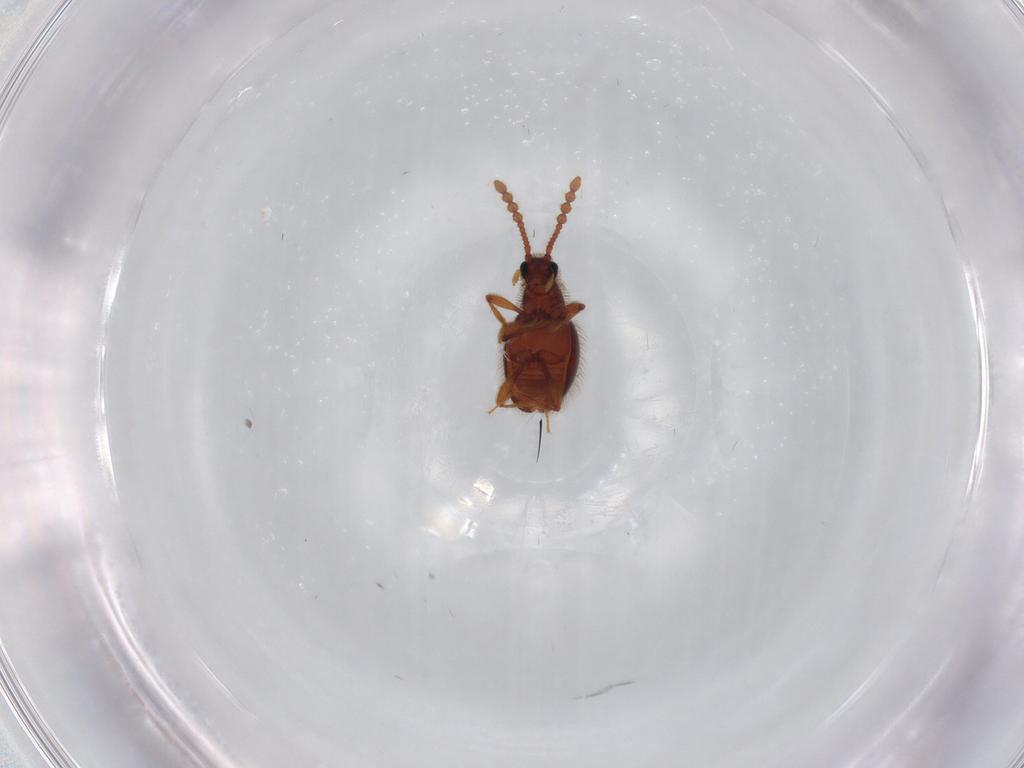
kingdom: Animalia
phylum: Arthropoda
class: Insecta
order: Coleoptera
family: Staphylinidae
